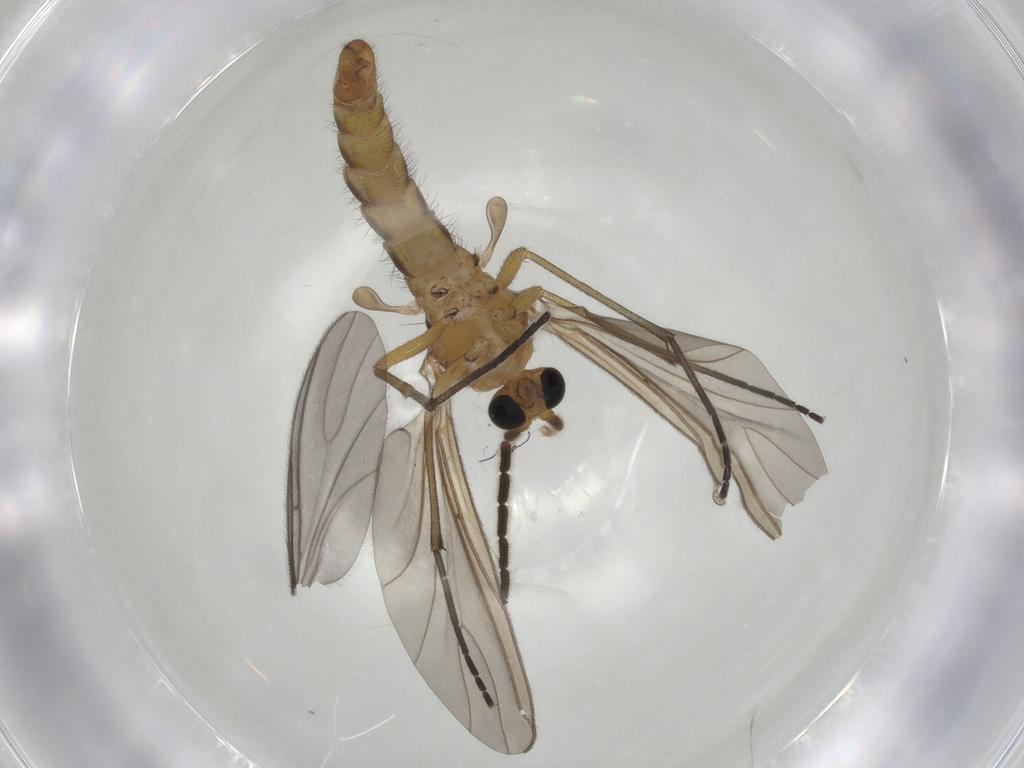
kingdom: Animalia
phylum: Arthropoda
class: Insecta
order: Diptera
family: Sciaridae
